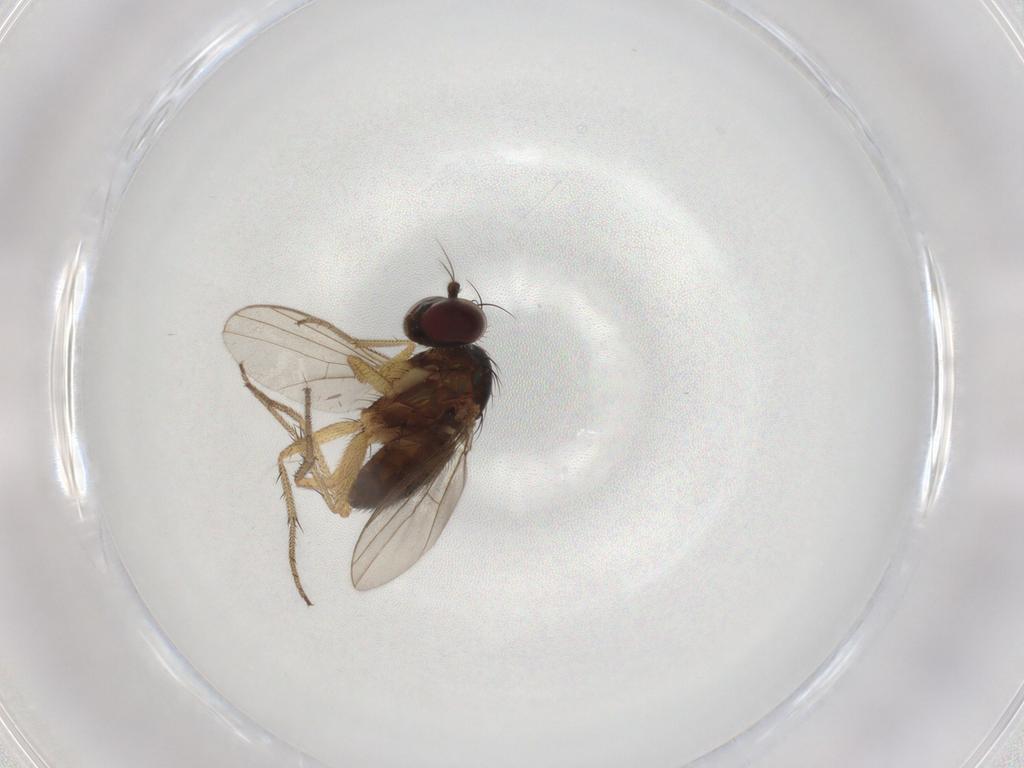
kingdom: Animalia
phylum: Arthropoda
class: Insecta
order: Diptera
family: Dolichopodidae
